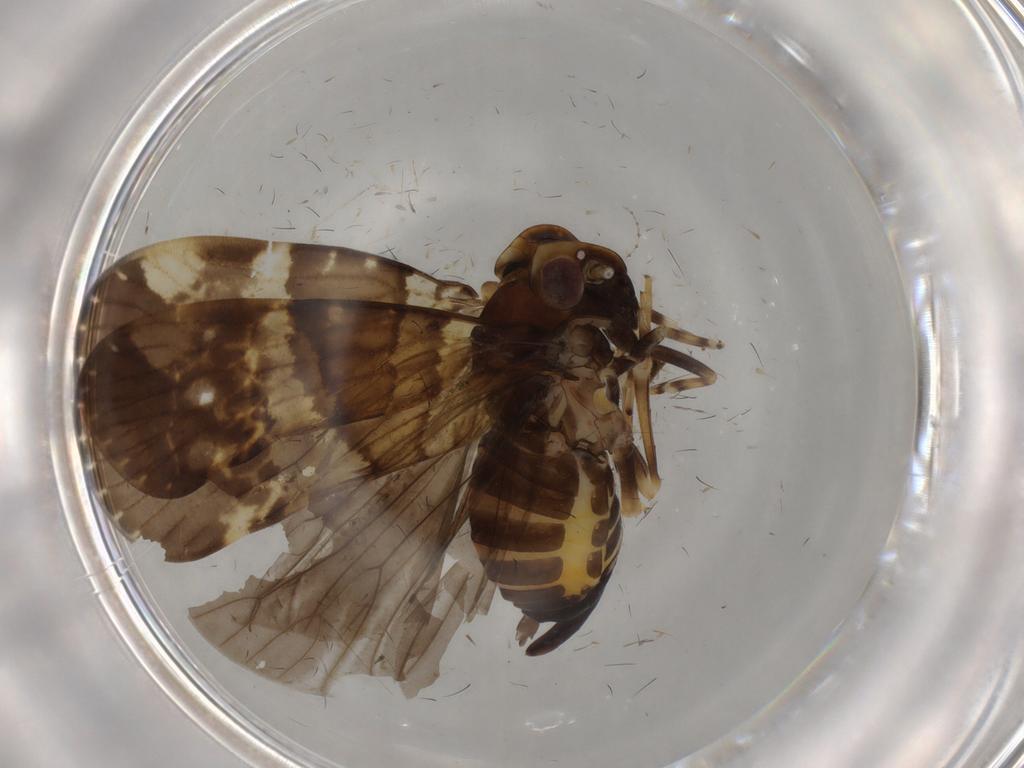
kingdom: Animalia
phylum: Arthropoda
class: Insecta
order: Hemiptera
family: Cixiidae
